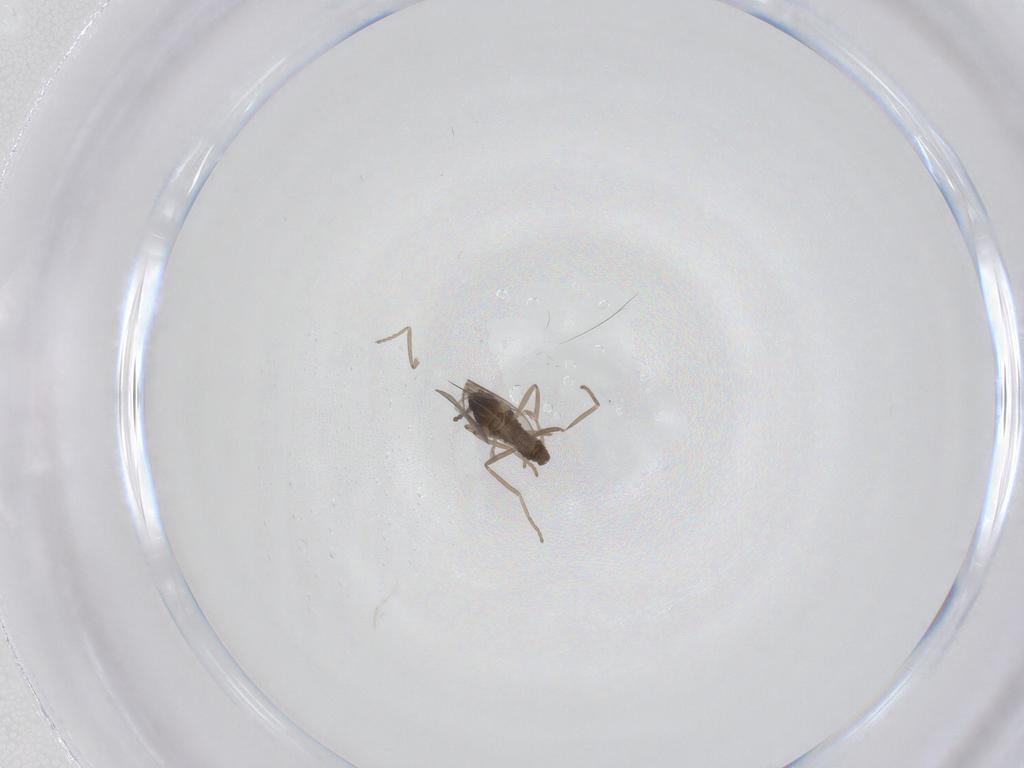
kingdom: Animalia
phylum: Arthropoda
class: Insecta
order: Diptera
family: Cecidomyiidae
